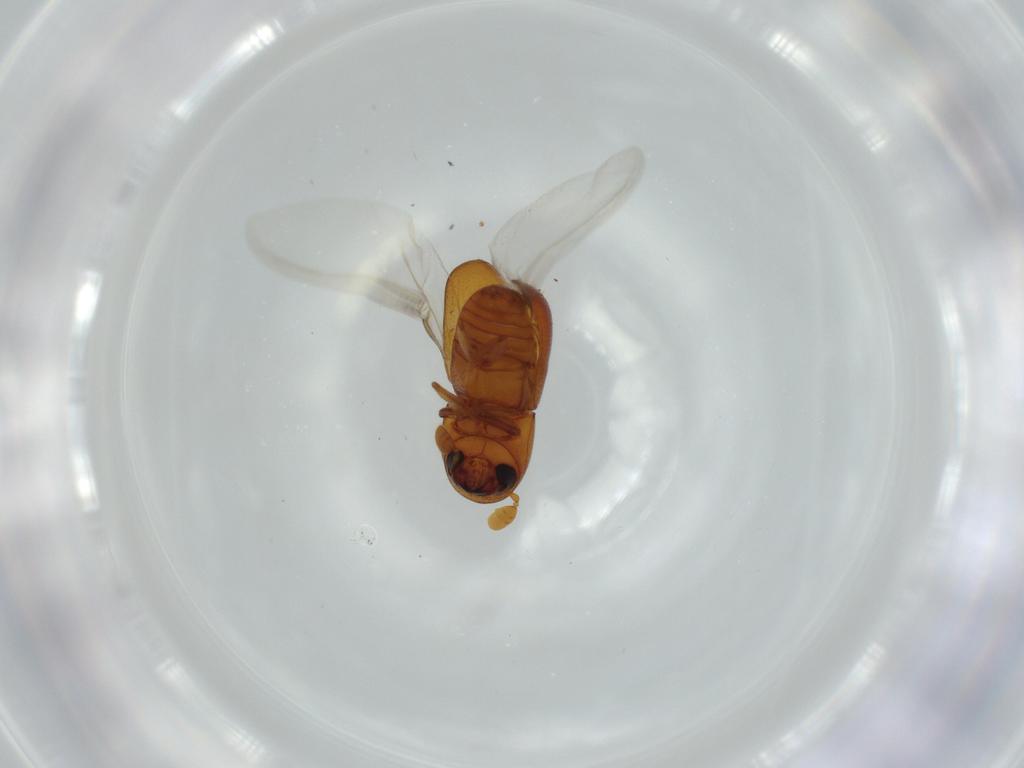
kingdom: Animalia
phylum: Arthropoda
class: Insecta
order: Coleoptera
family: Curculionidae
